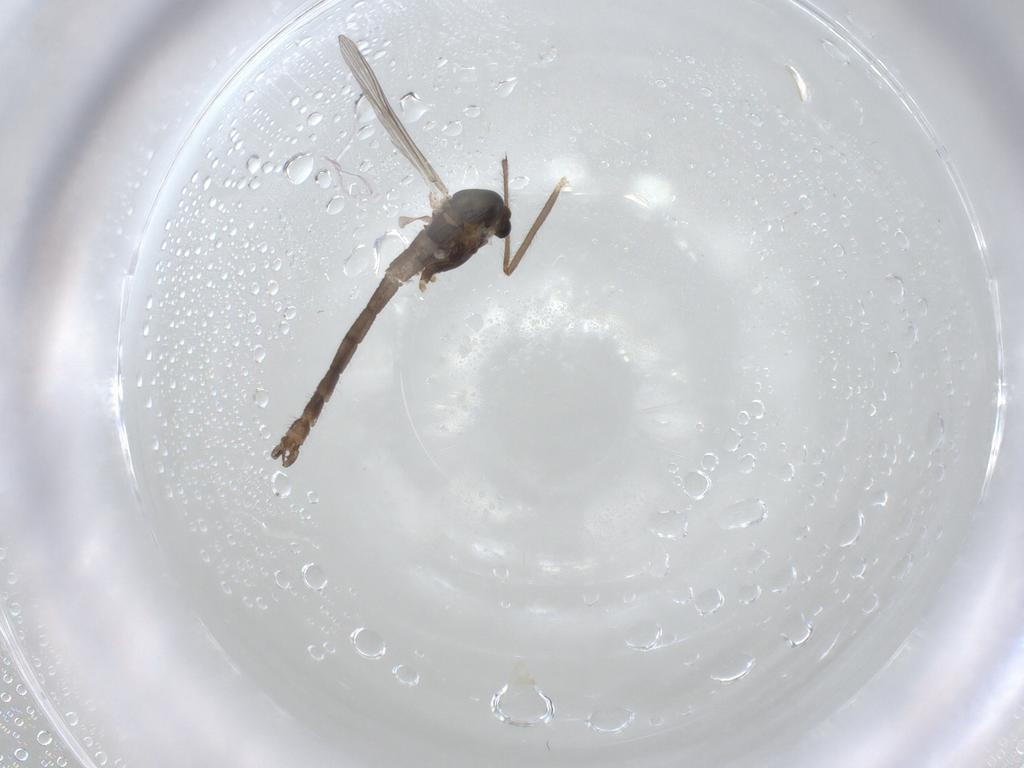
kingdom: Animalia
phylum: Arthropoda
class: Insecta
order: Diptera
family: Chironomidae
